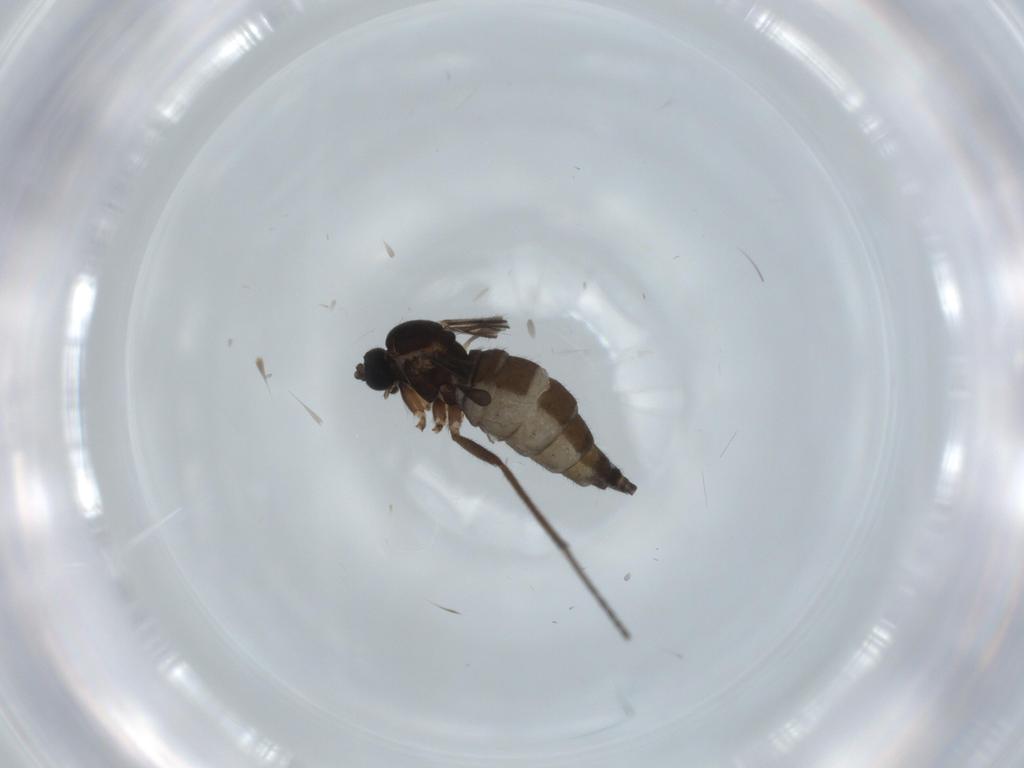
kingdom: Animalia
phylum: Arthropoda
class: Insecta
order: Diptera
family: Sciaridae
